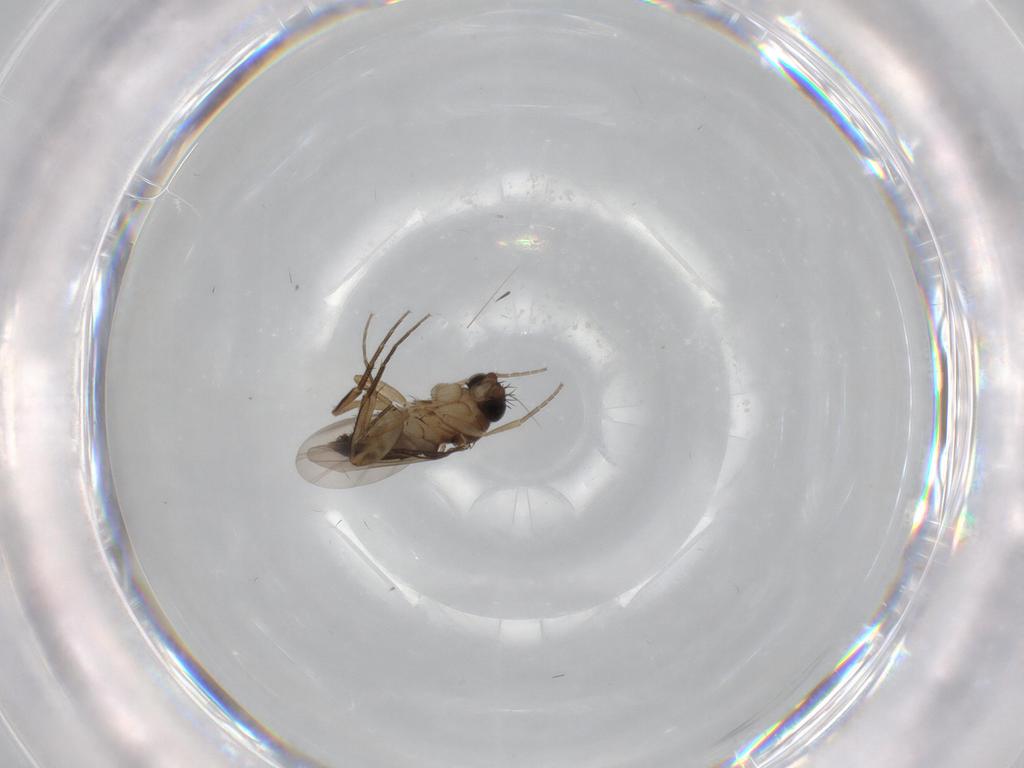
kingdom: Animalia
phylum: Arthropoda
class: Insecta
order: Diptera
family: Phoridae
